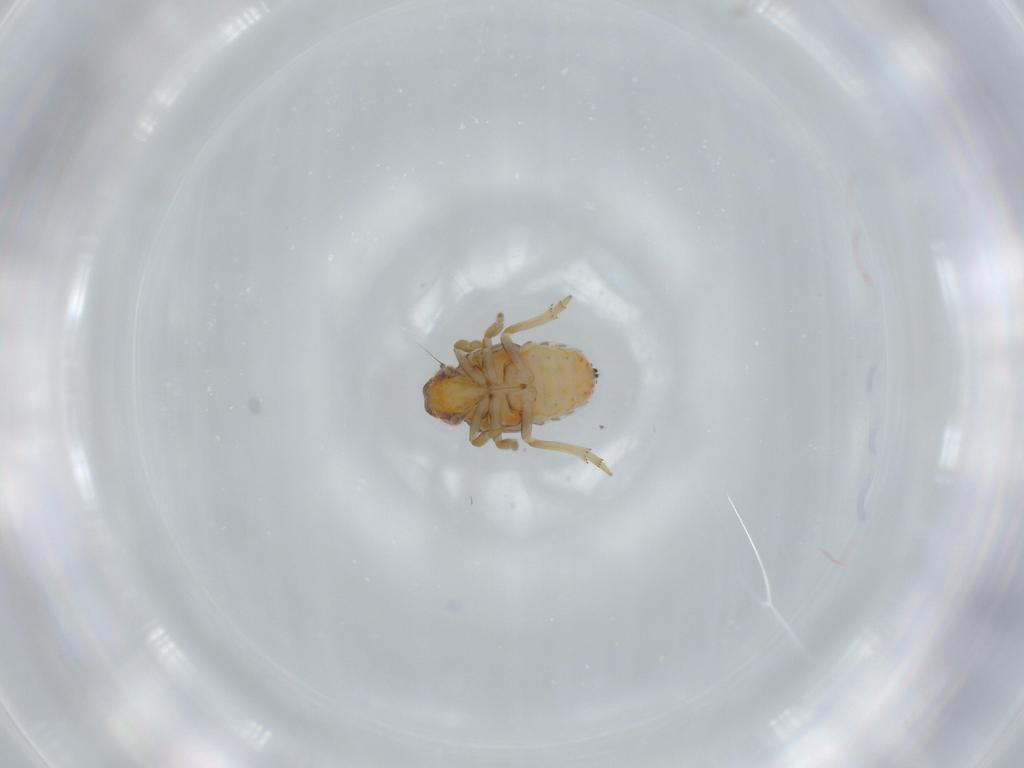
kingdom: Animalia
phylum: Arthropoda
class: Insecta
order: Hemiptera
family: Issidae
